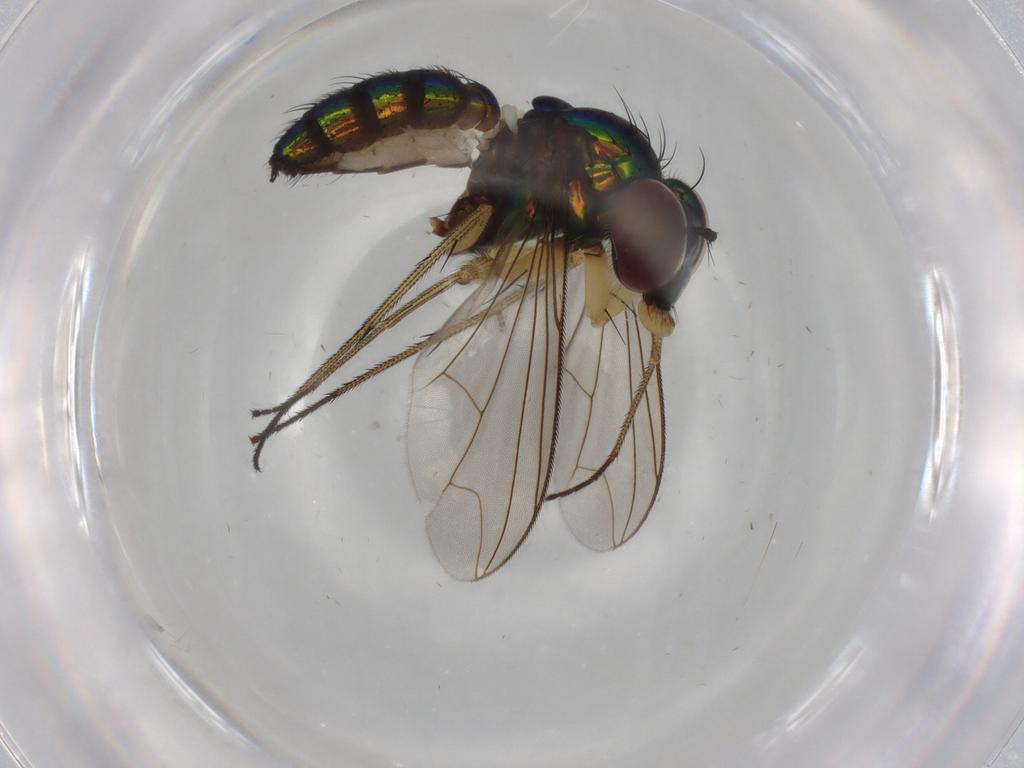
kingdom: Animalia
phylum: Arthropoda
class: Insecta
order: Diptera
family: Dolichopodidae
